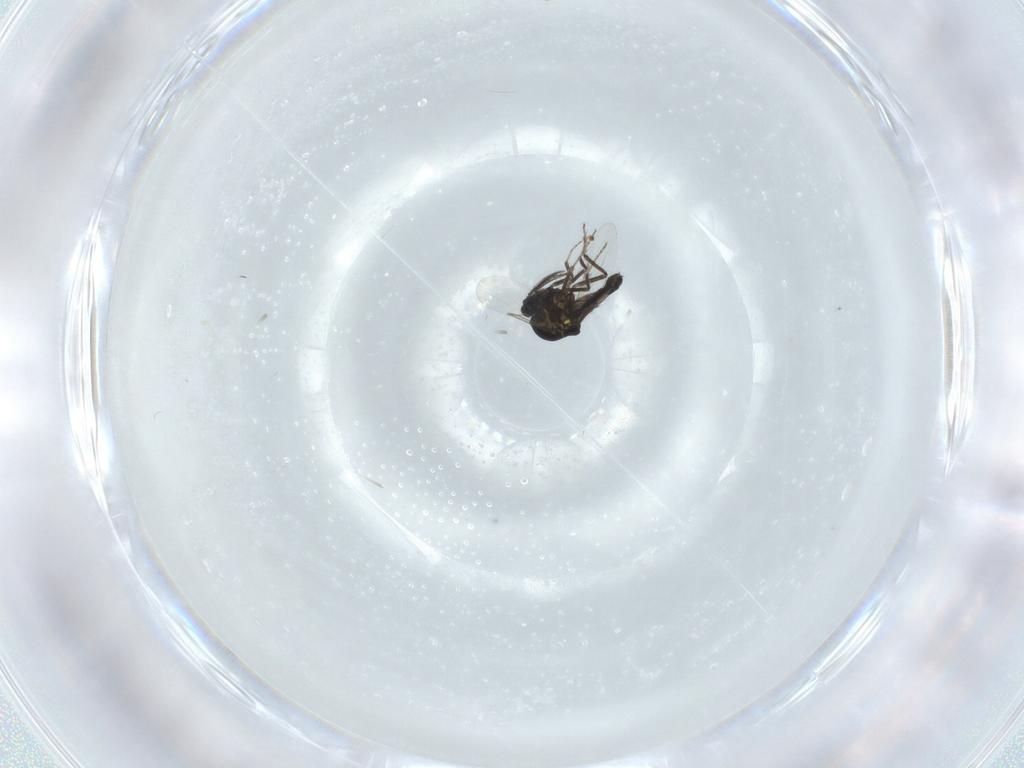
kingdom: Animalia
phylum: Arthropoda
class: Insecta
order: Diptera
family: Ceratopogonidae
